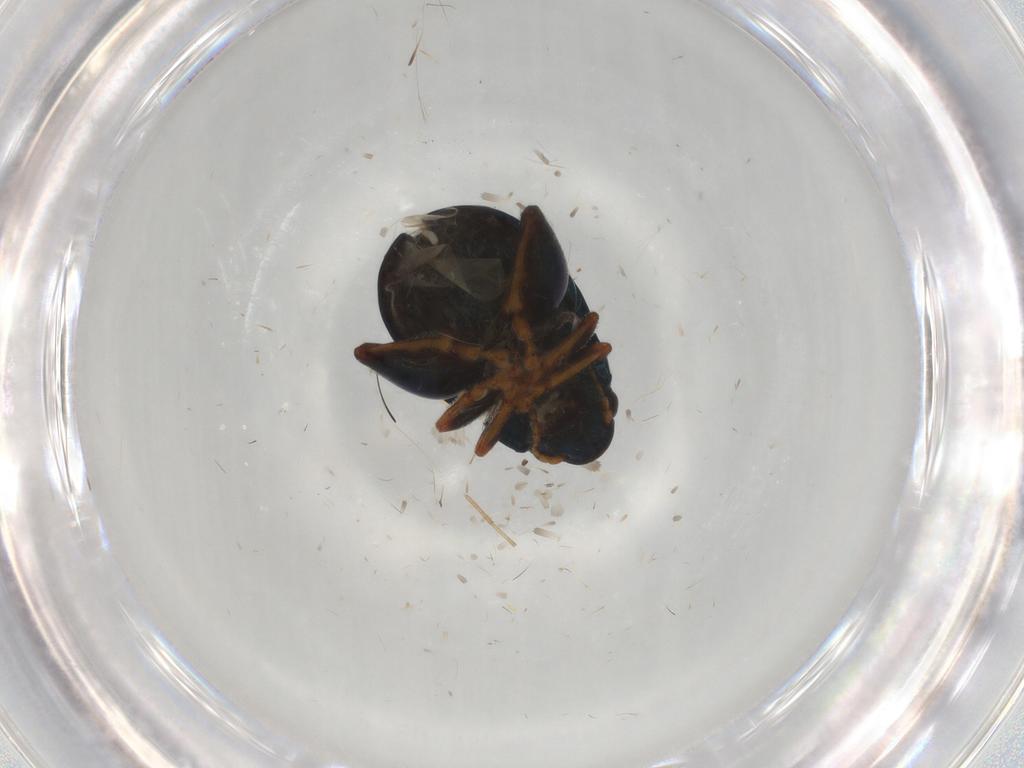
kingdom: Animalia
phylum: Arthropoda
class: Insecta
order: Coleoptera
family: Chrysomelidae
